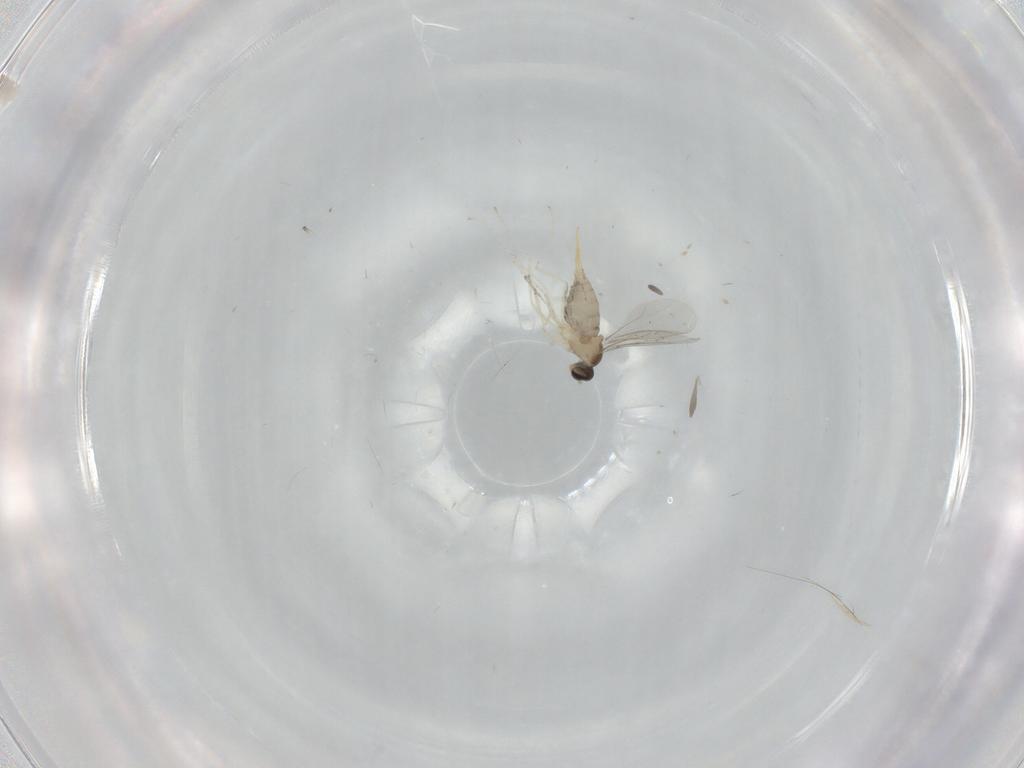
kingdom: Animalia
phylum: Arthropoda
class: Insecta
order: Diptera
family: Cecidomyiidae
